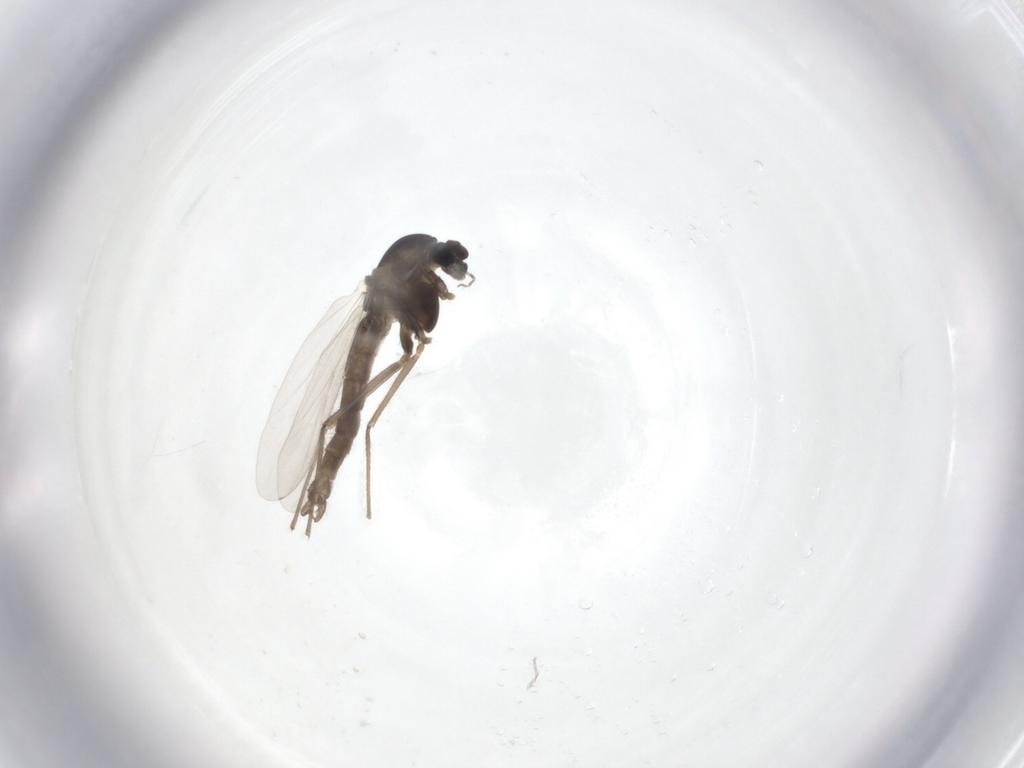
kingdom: Animalia
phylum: Arthropoda
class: Insecta
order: Diptera
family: Chironomidae
